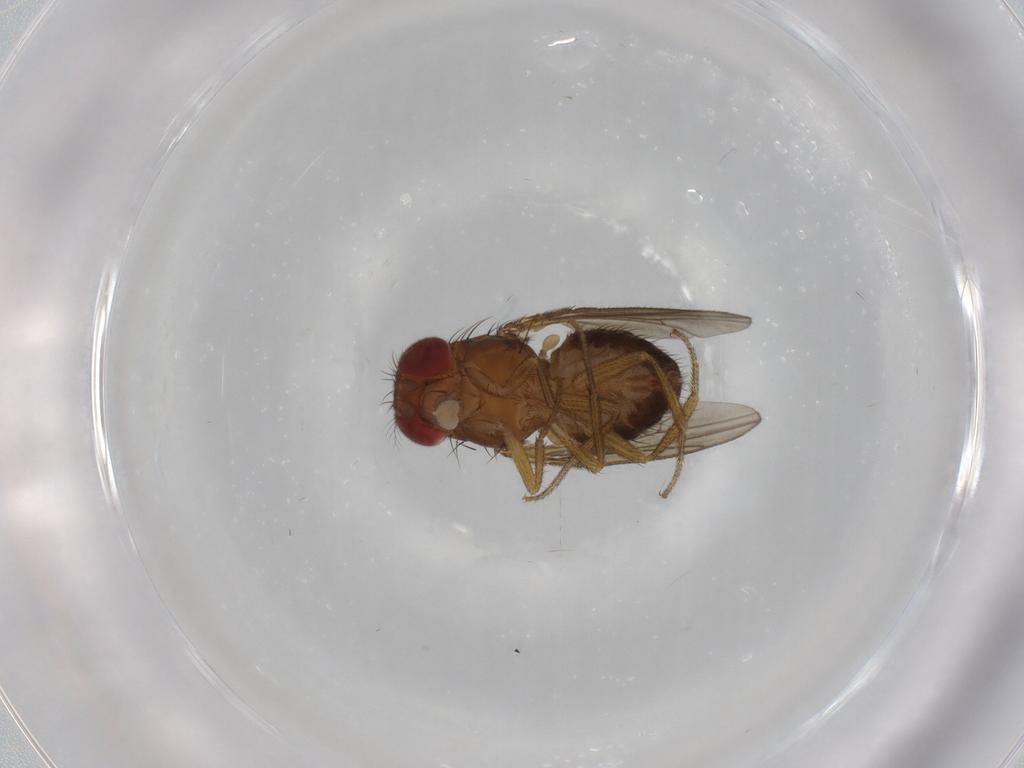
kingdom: Animalia
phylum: Arthropoda
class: Insecta
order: Diptera
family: Drosophilidae
